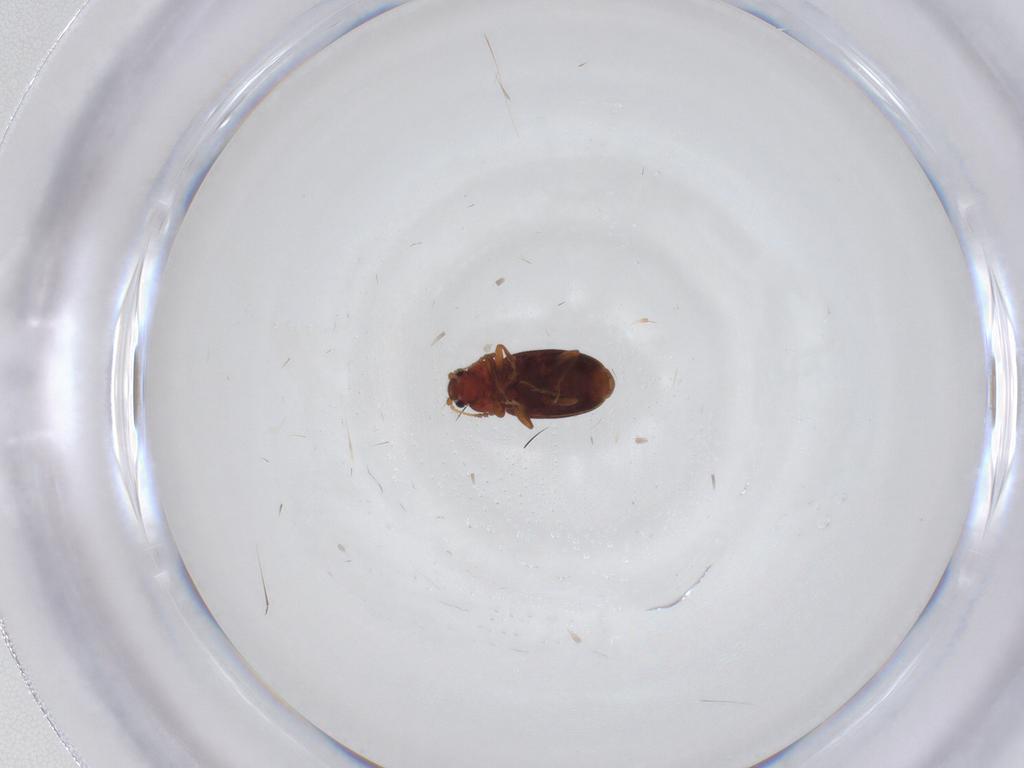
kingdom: Animalia
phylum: Arthropoda
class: Insecta
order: Coleoptera
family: Latridiidae
